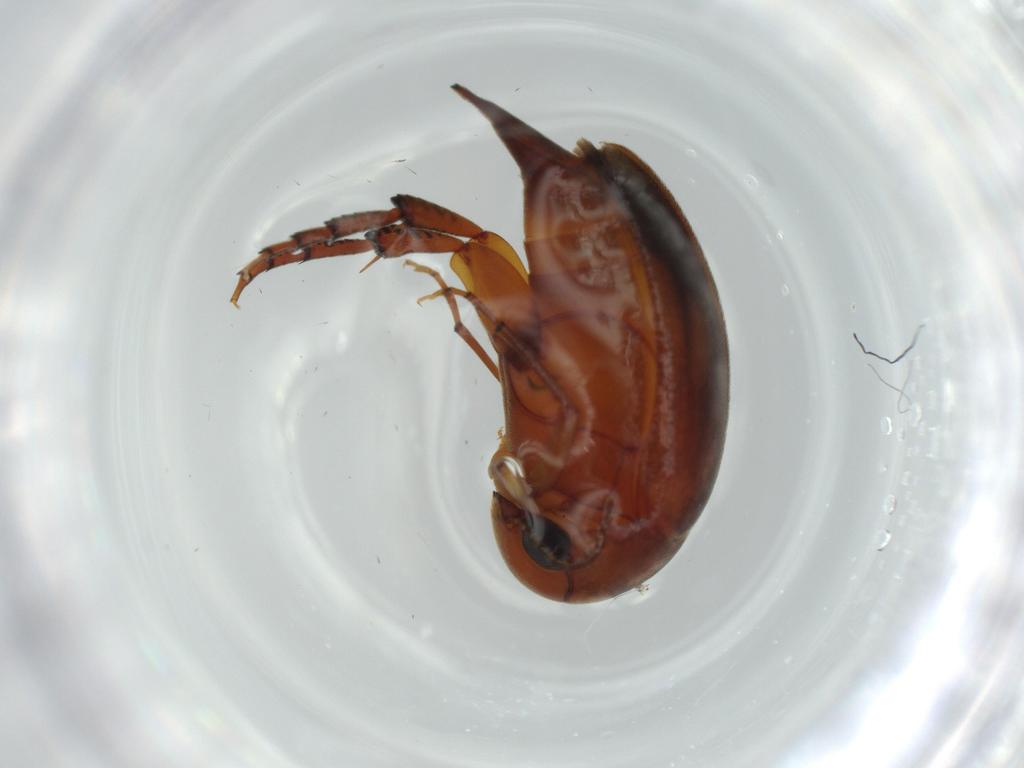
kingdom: Animalia
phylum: Arthropoda
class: Insecta
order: Coleoptera
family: Mordellidae
